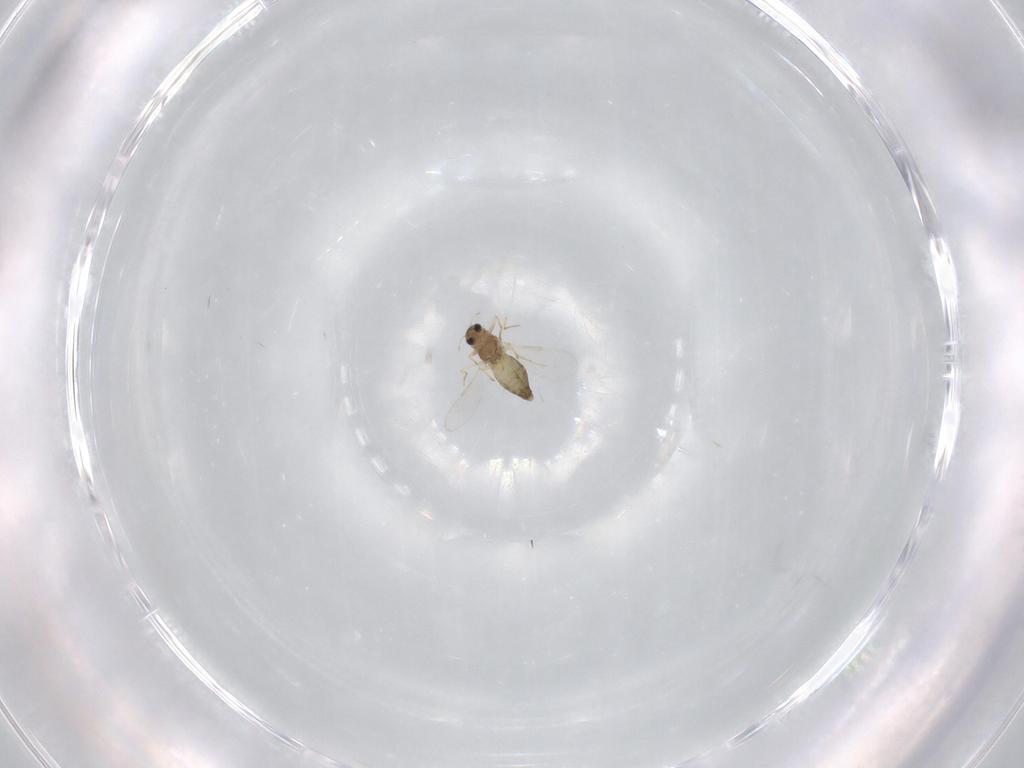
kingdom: Animalia
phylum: Arthropoda
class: Insecta
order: Diptera
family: Chironomidae
